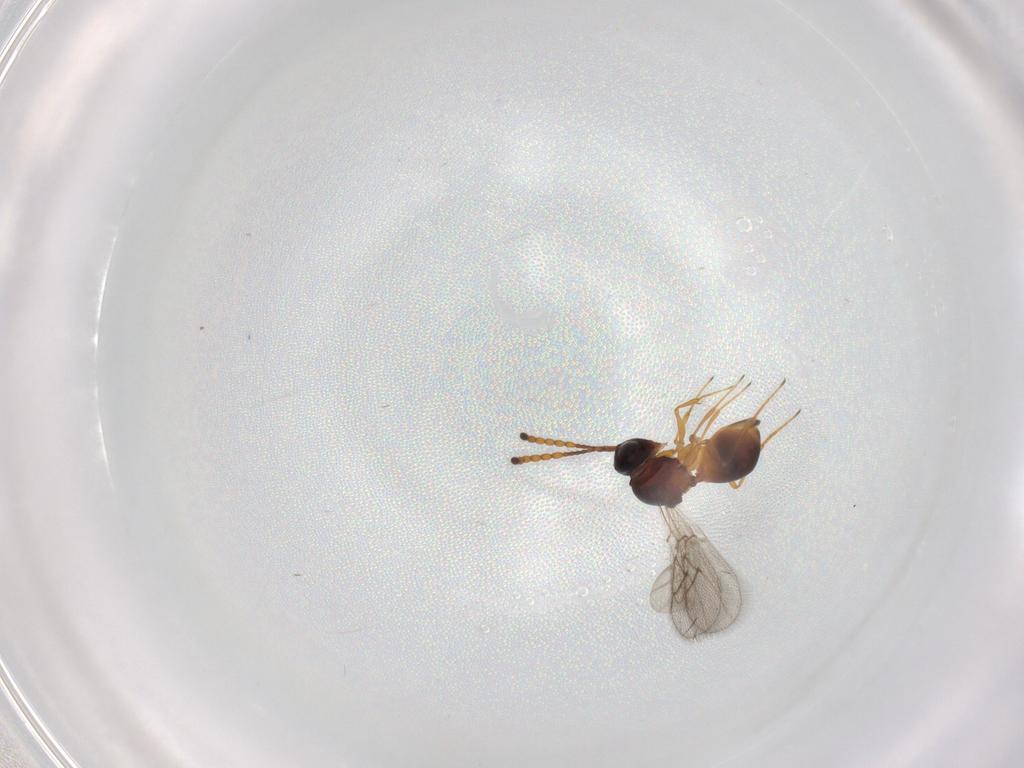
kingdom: Animalia
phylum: Arthropoda
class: Insecta
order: Hymenoptera
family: Figitidae
